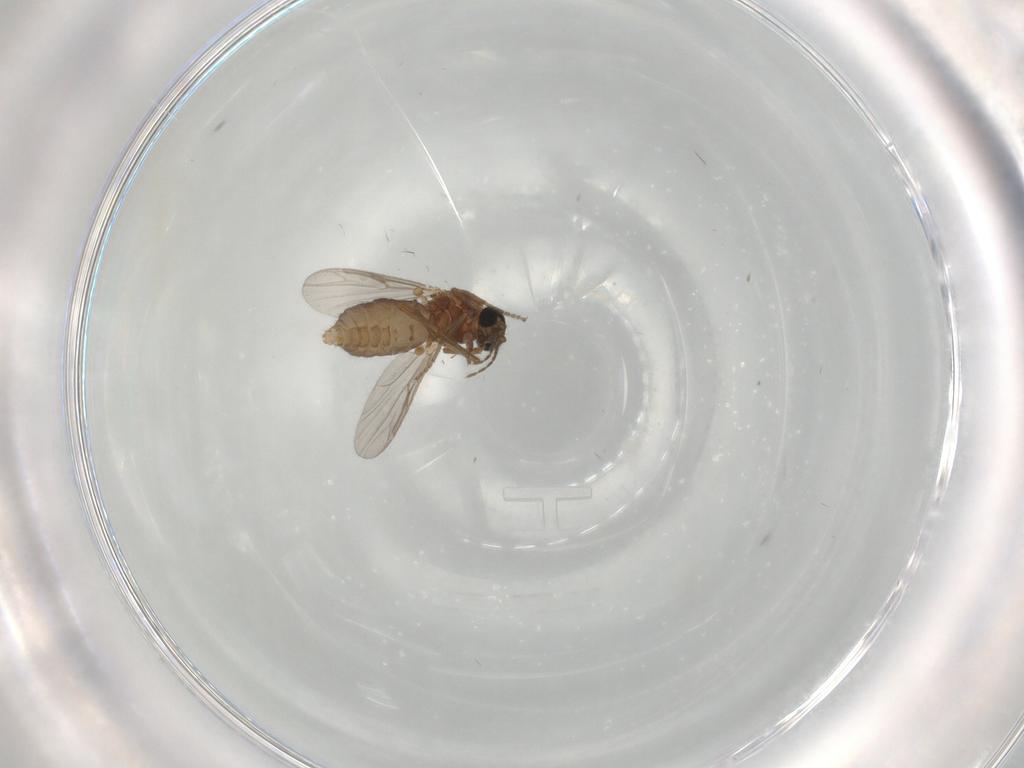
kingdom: Animalia
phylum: Arthropoda
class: Insecta
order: Diptera
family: Ceratopogonidae
